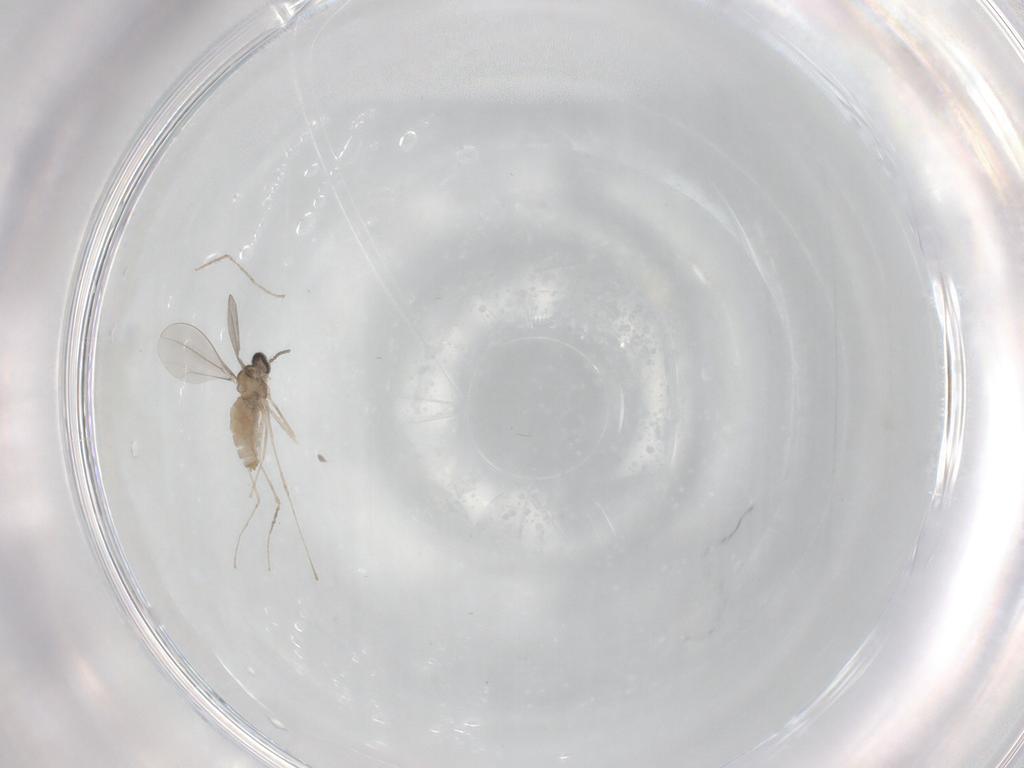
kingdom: Animalia
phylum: Arthropoda
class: Insecta
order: Diptera
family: Cecidomyiidae
